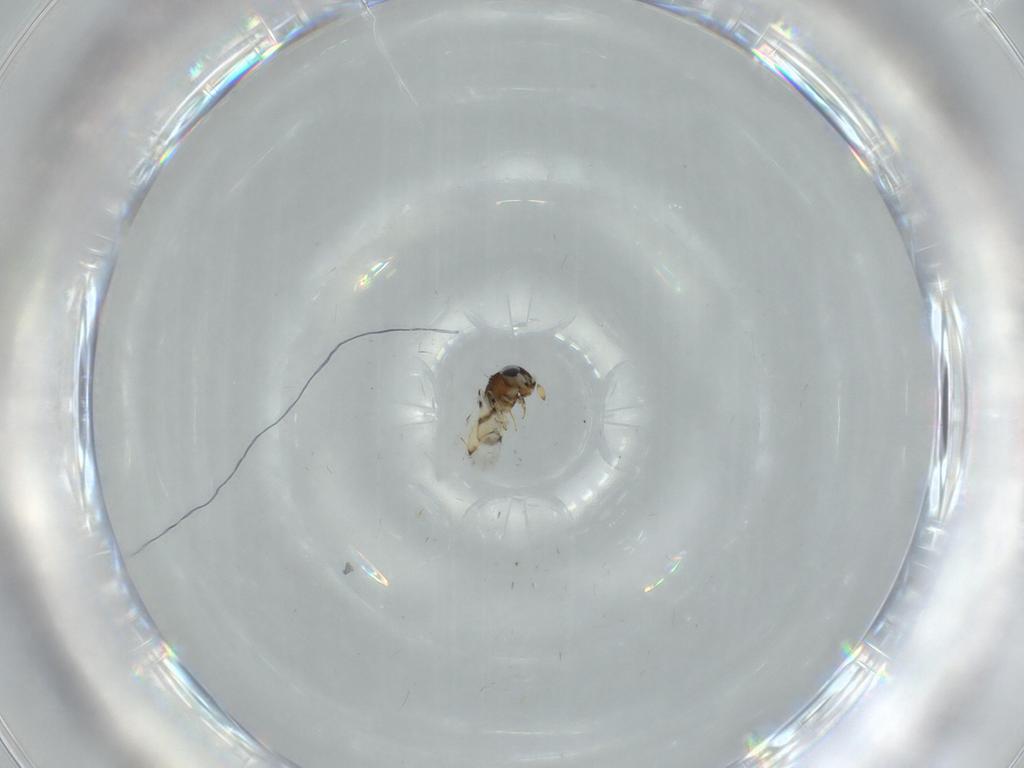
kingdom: Animalia
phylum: Arthropoda
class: Insecta
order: Hymenoptera
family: Scelionidae
